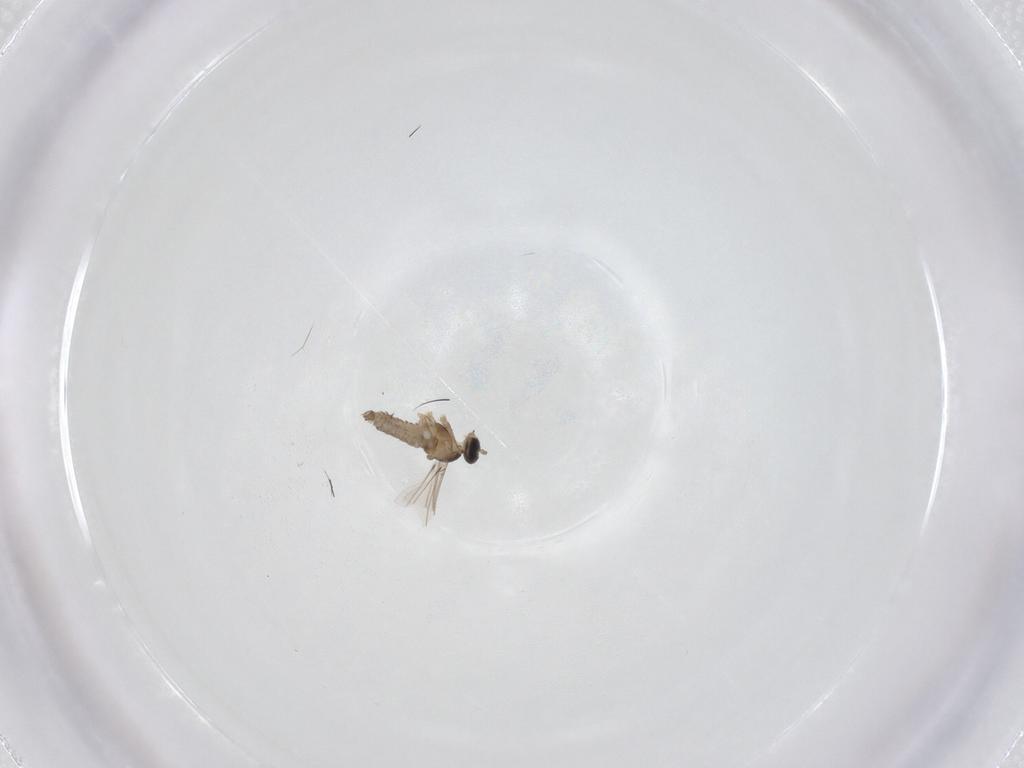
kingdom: Animalia
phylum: Arthropoda
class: Insecta
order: Diptera
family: Cecidomyiidae
